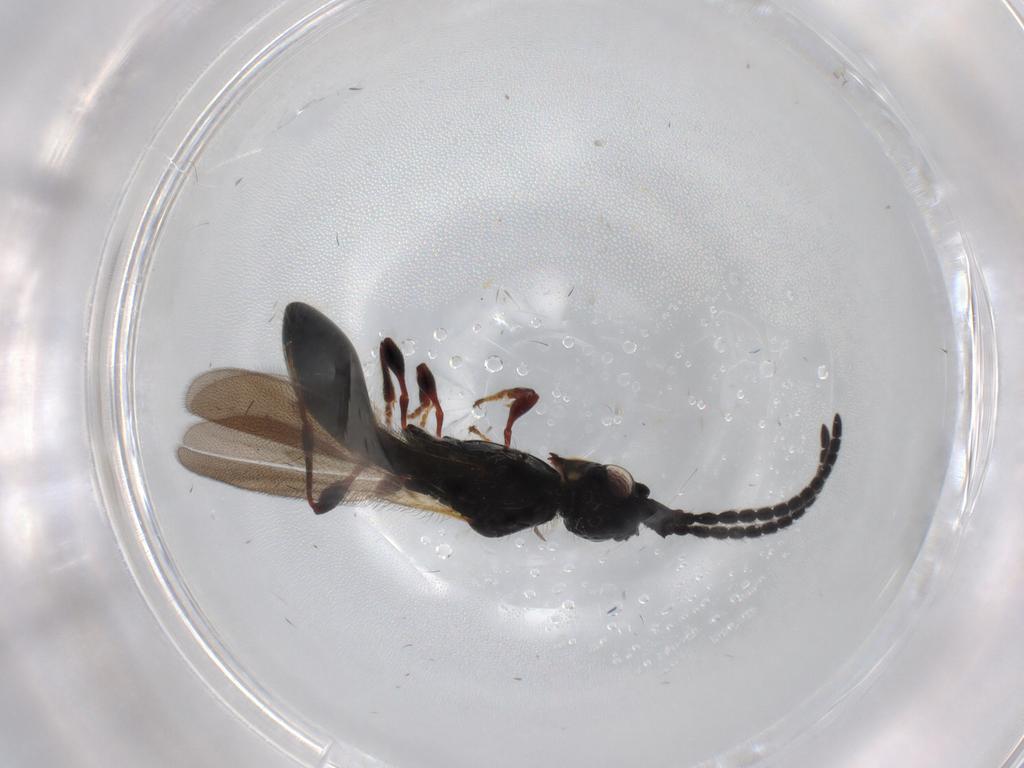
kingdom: Animalia
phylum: Arthropoda
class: Insecta
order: Hymenoptera
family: Diapriidae
